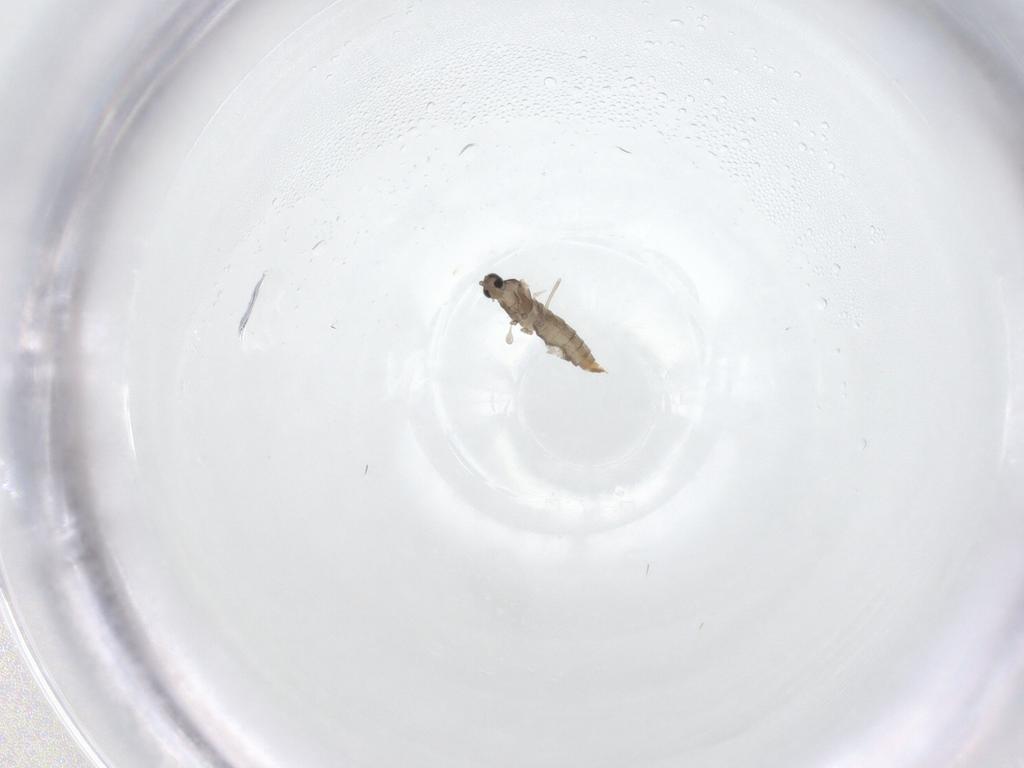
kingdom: Animalia
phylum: Arthropoda
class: Insecta
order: Diptera
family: Cecidomyiidae
